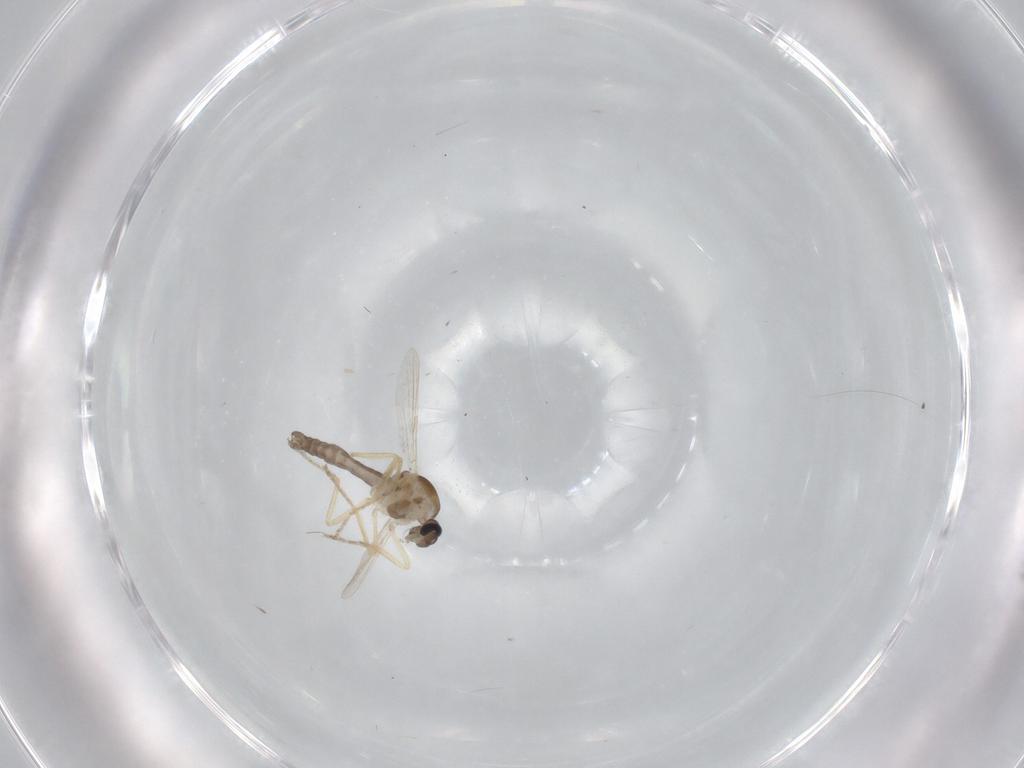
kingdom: Animalia
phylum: Arthropoda
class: Insecta
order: Diptera
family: Ceratopogonidae
